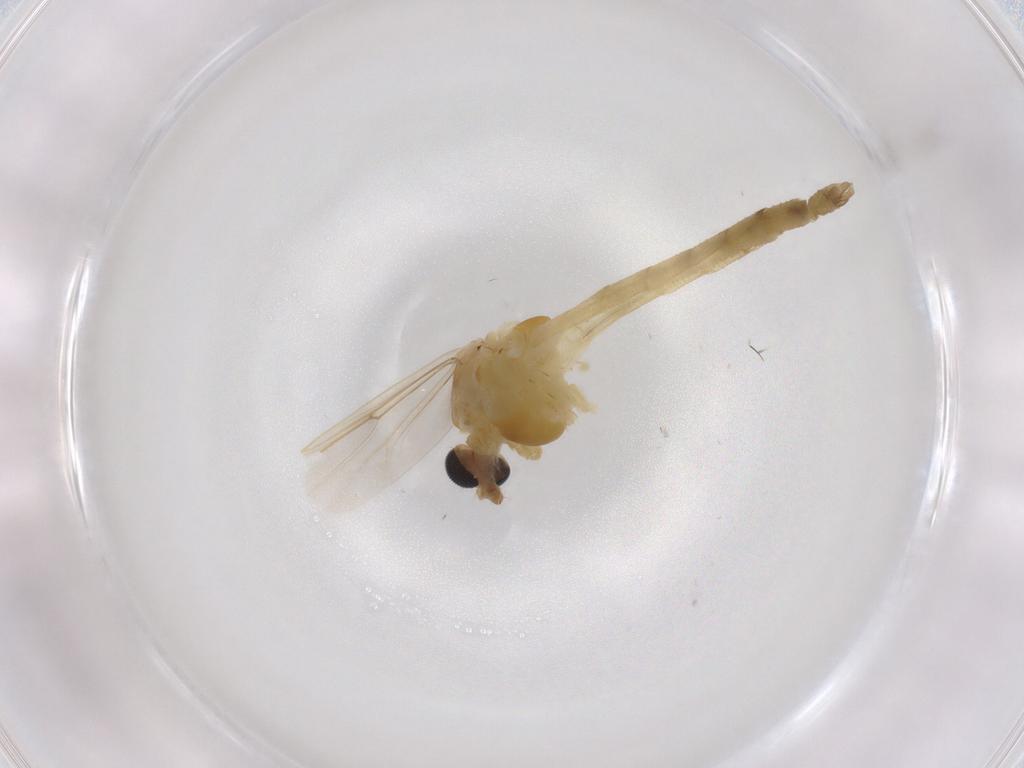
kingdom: Animalia
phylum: Arthropoda
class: Insecta
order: Diptera
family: Chironomidae
